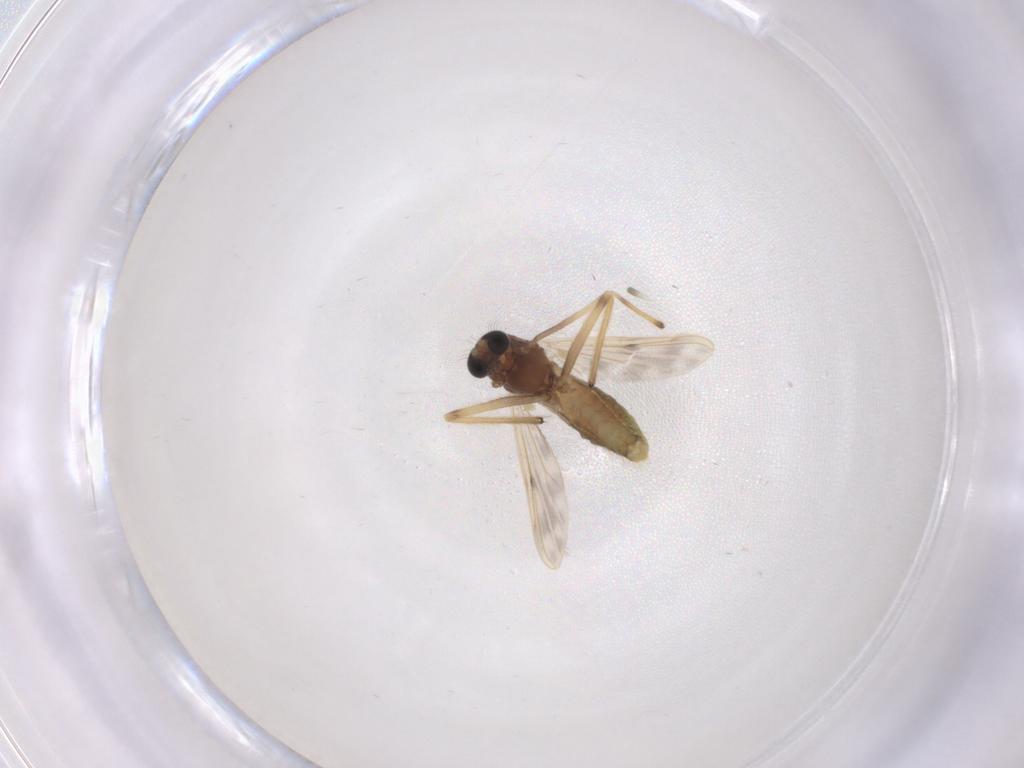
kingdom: Animalia
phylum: Arthropoda
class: Insecta
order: Diptera
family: Chironomidae
